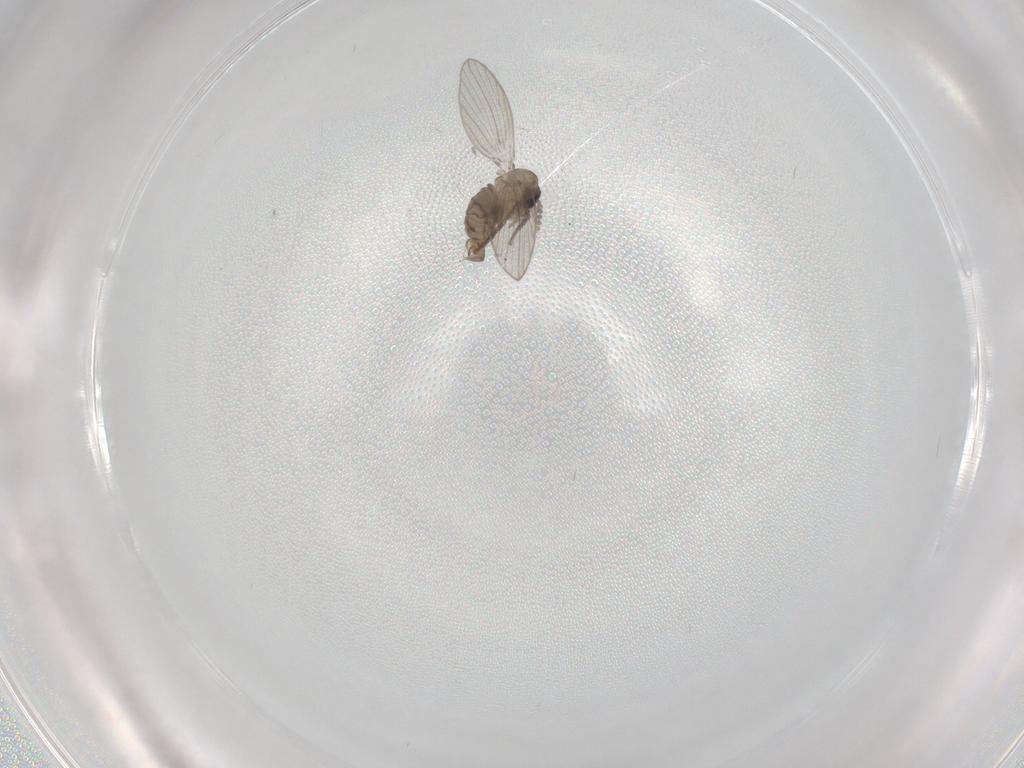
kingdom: Animalia
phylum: Arthropoda
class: Insecta
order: Diptera
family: Psychodidae
